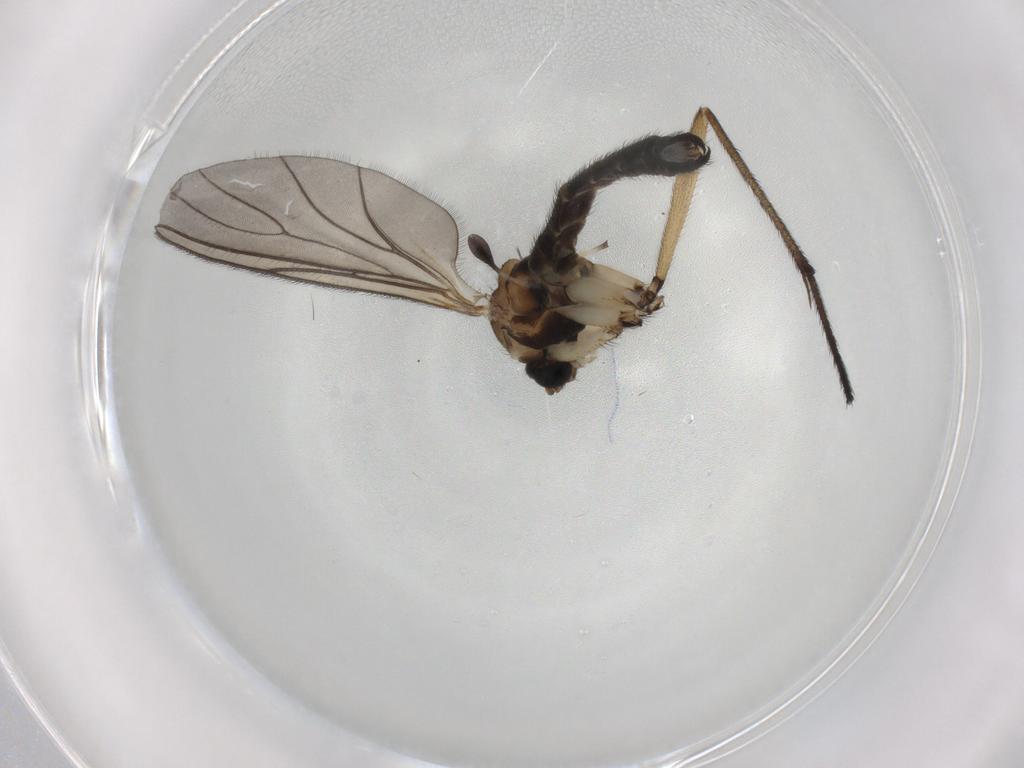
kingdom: Animalia
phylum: Arthropoda
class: Insecta
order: Diptera
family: Sciaridae
